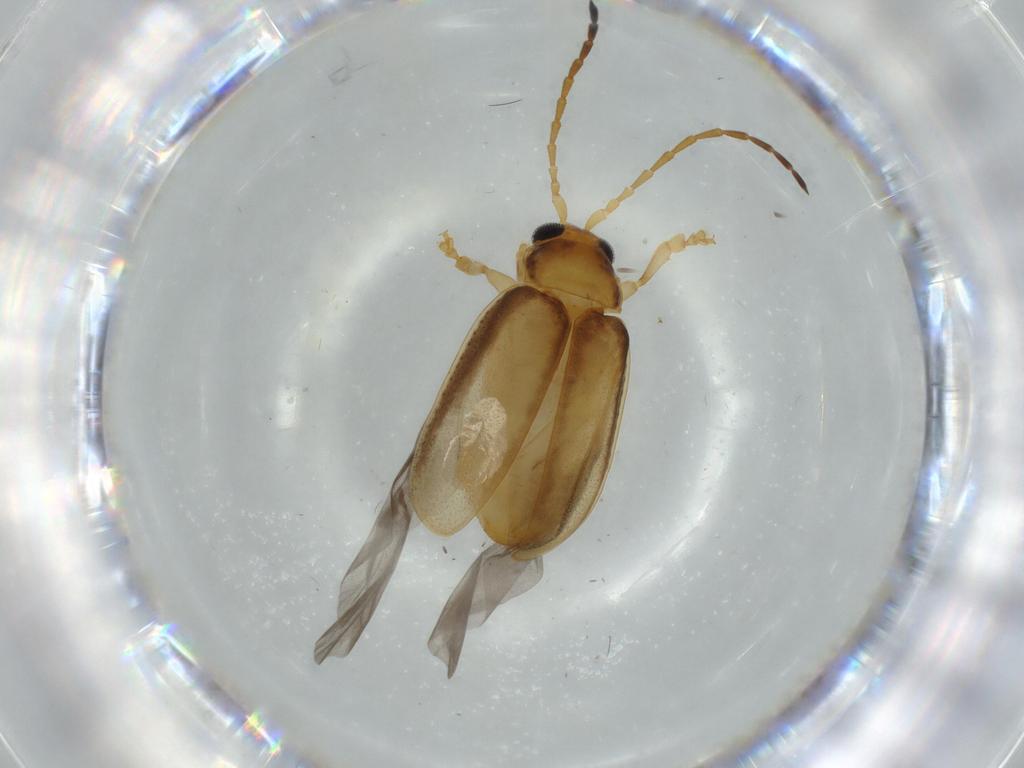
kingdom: Animalia
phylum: Arthropoda
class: Insecta
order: Coleoptera
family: Chrysomelidae
